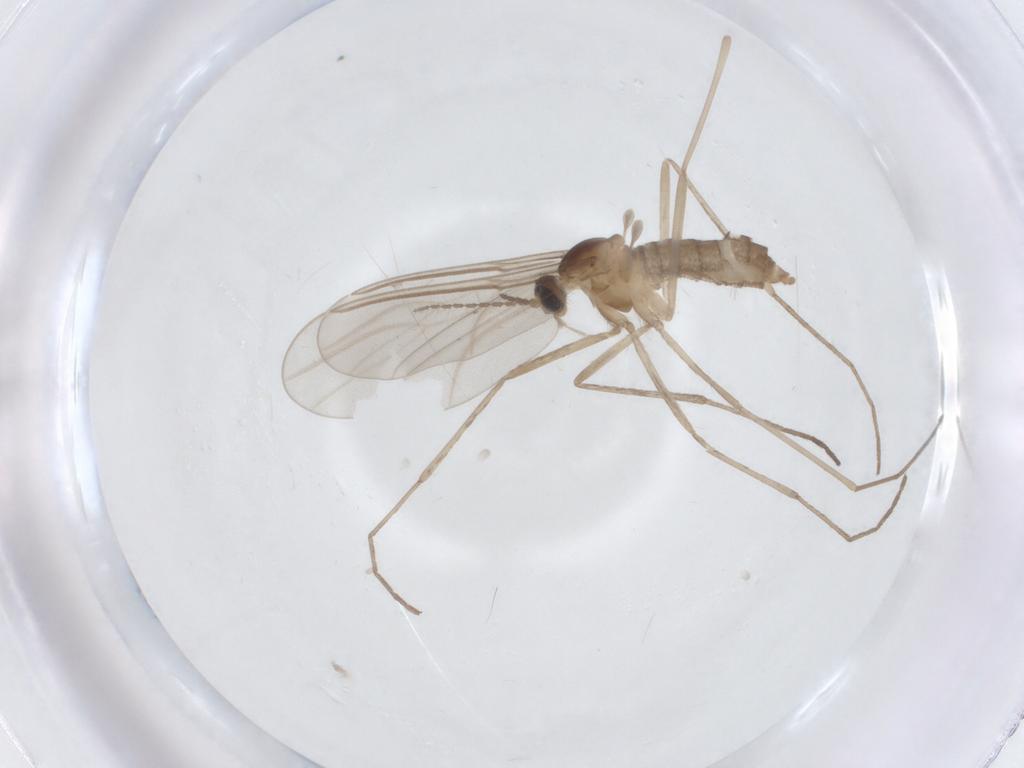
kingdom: Animalia
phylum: Arthropoda
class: Insecta
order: Diptera
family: Cecidomyiidae
